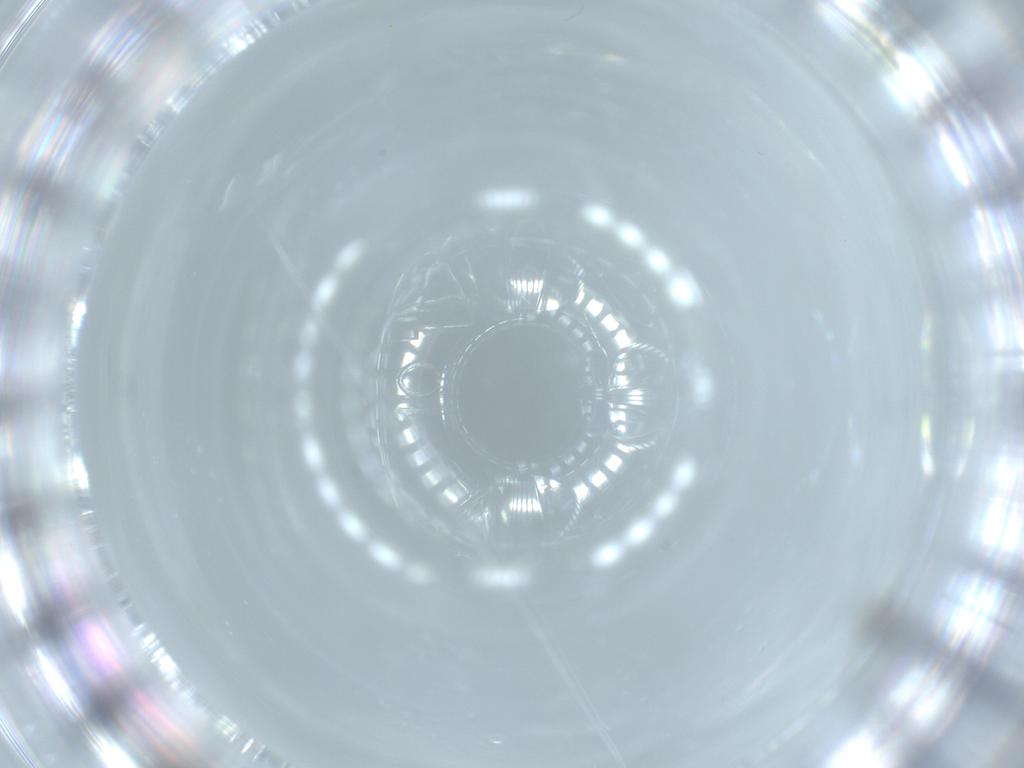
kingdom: Animalia
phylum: Arthropoda
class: Insecta
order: Coleoptera
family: Chrysomelidae
